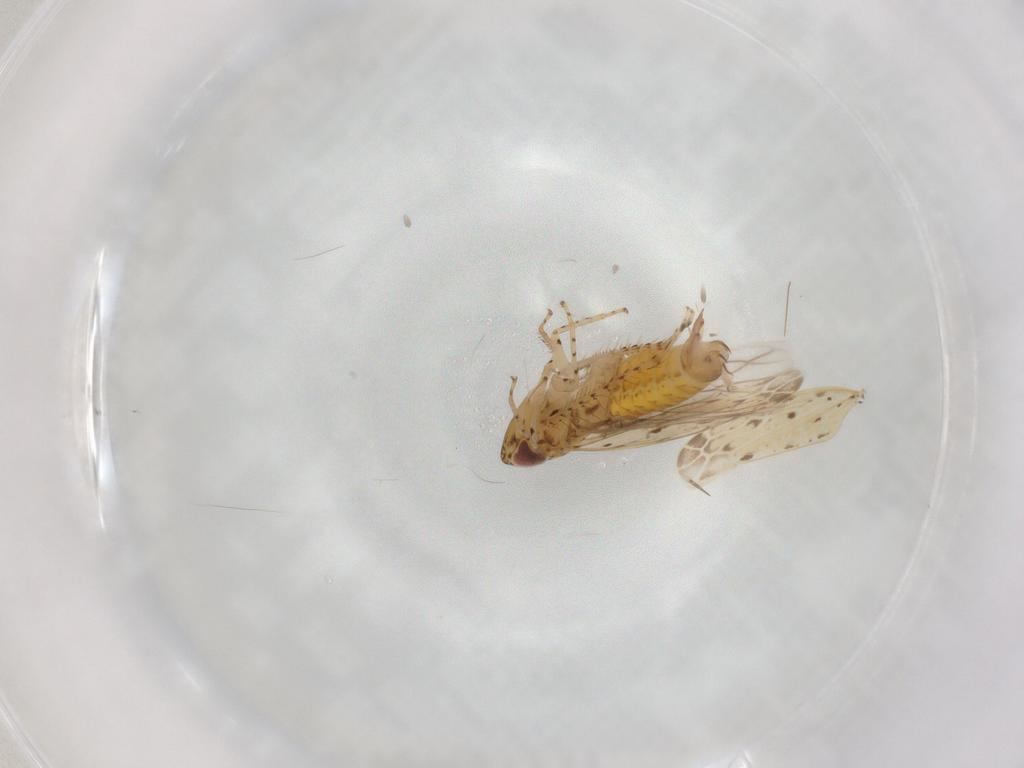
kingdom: Animalia
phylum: Arthropoda
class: Insecta
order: Hemiptera
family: Cicadellidae
